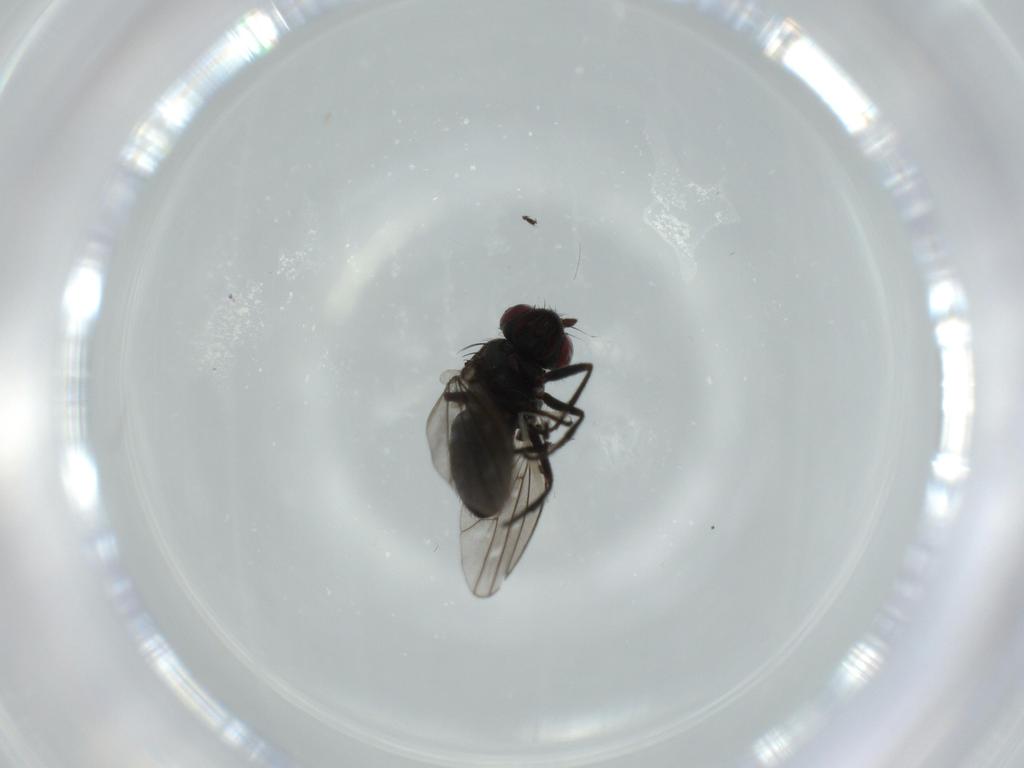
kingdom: Animalia
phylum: Arthropoda
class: Insecta
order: Diptera
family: Ephydridae
